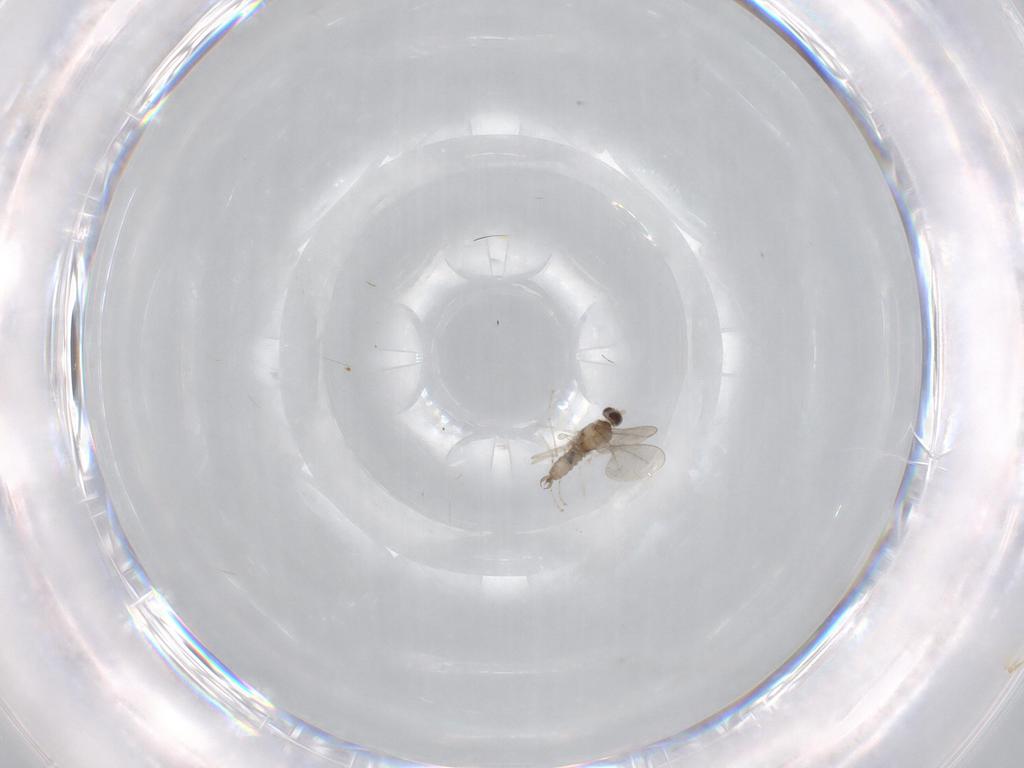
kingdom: Animalia
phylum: Arthropoda
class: Insecta
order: Diptera
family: Cecidomyiidae
